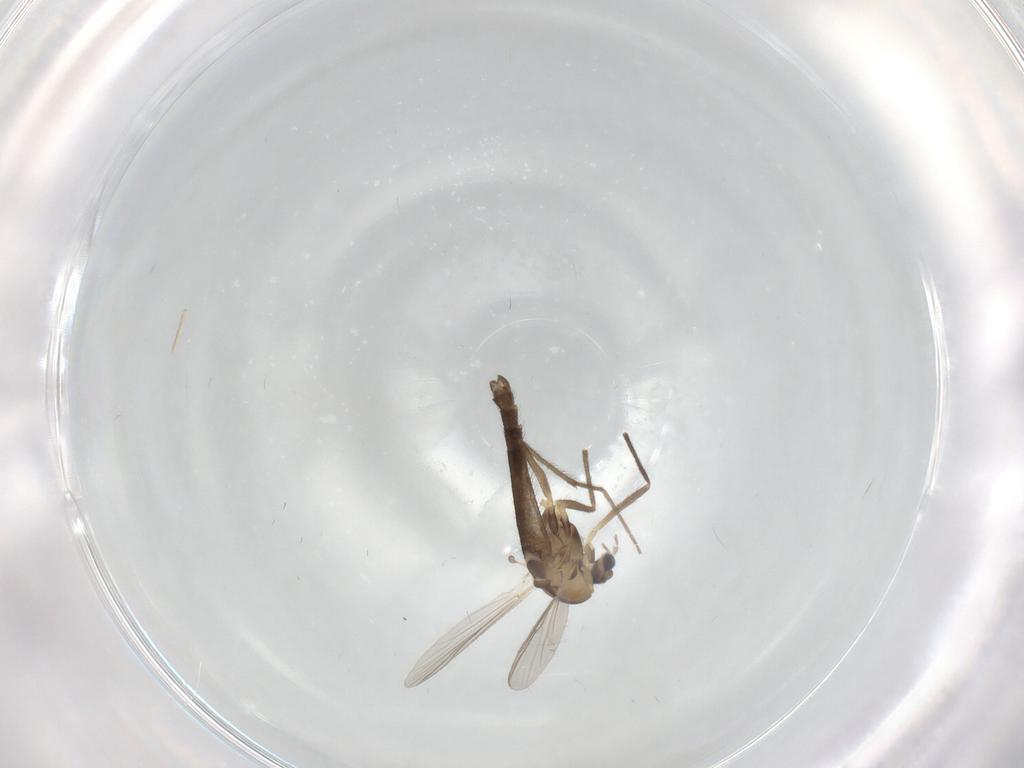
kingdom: Animalia
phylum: Arthropoda
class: Insecta
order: Diptera
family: Chironomidae
